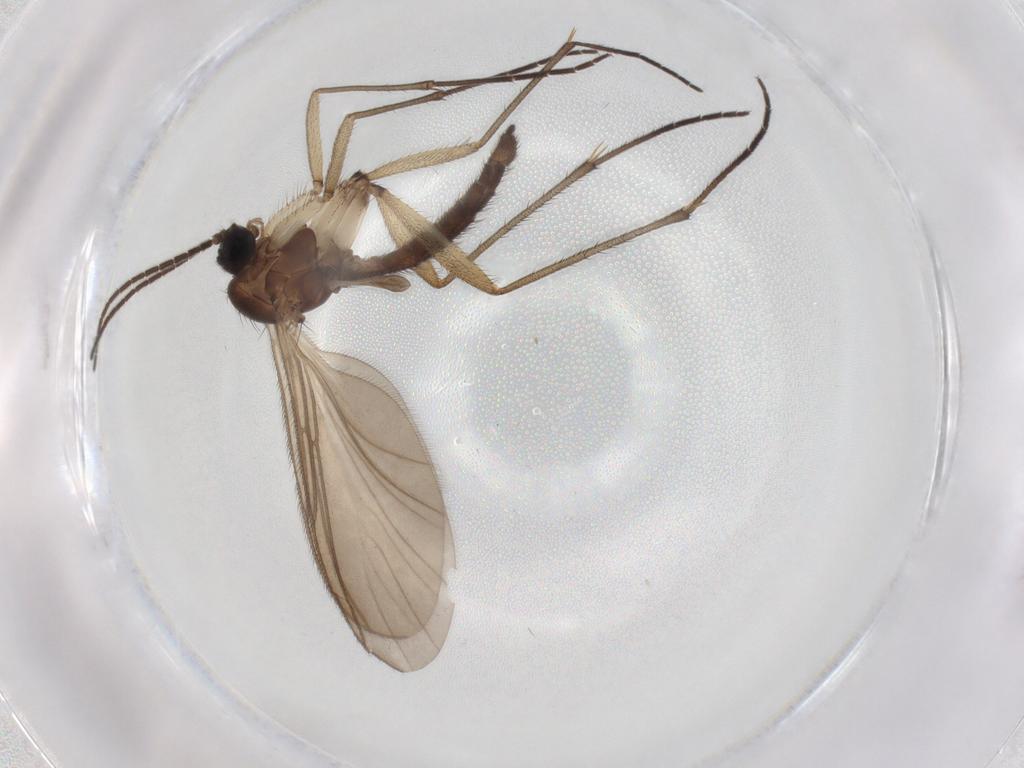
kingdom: Animalia
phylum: Arthropoda
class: Insecta
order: Diptera
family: Sciaridae
